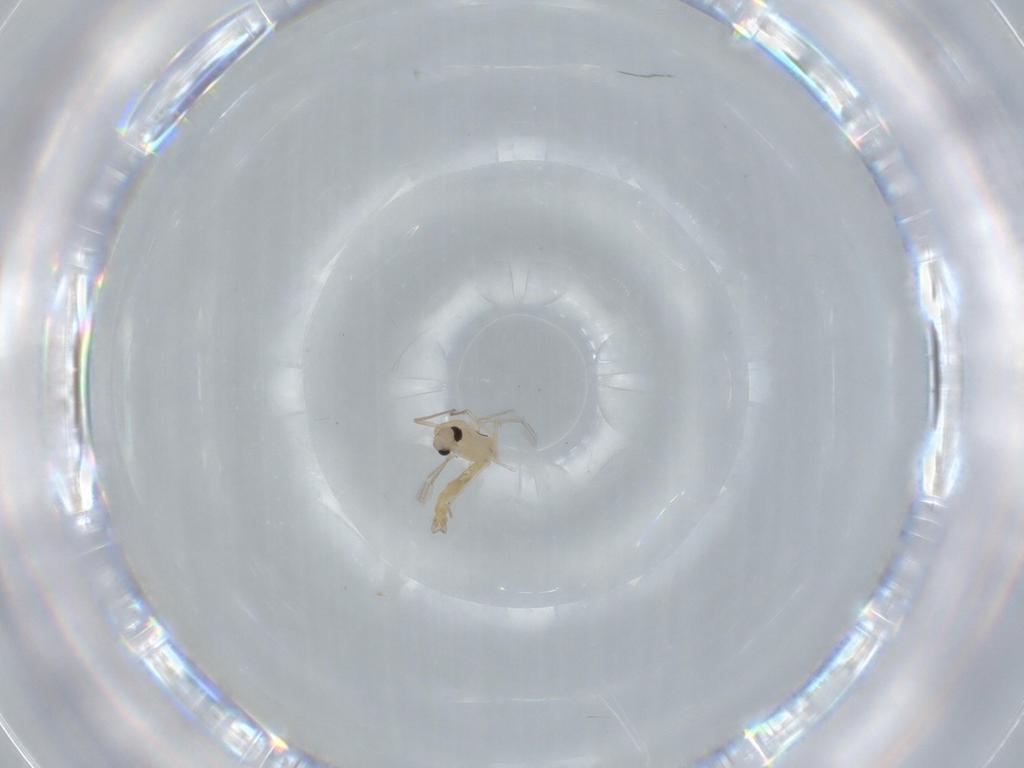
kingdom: Animalia
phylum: Arthropoda
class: Insecta
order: Diptera
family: Chironomidae
